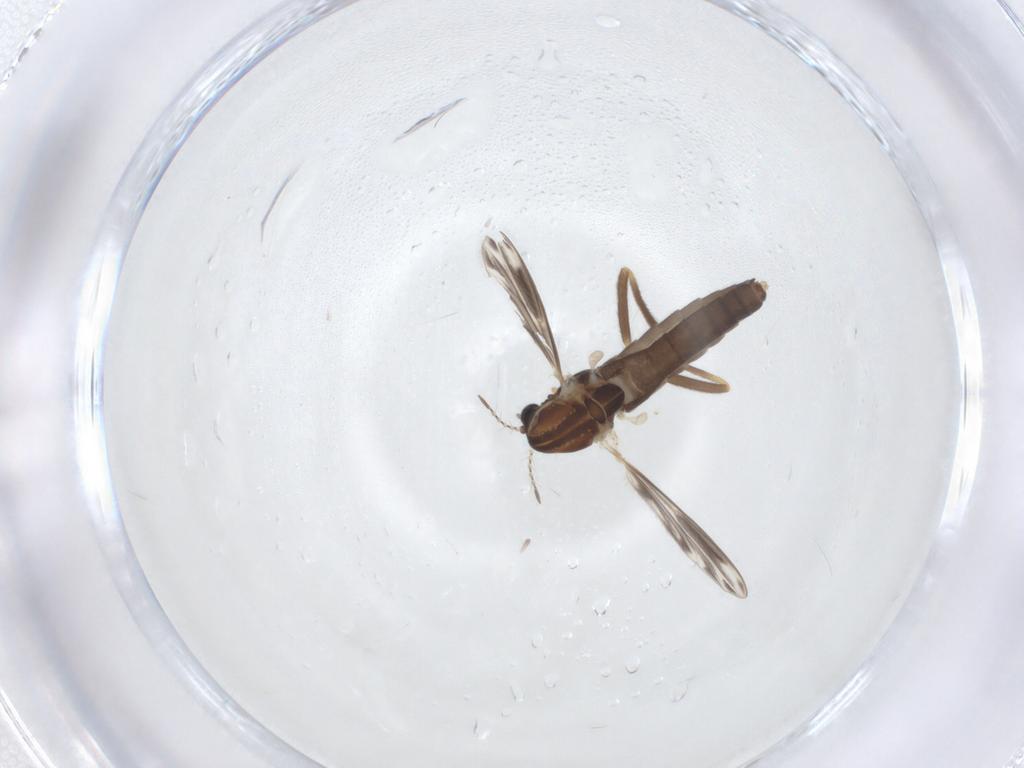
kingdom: Animalia
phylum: Arthropoda
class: Insecta
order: Diptera
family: Chironomidae
